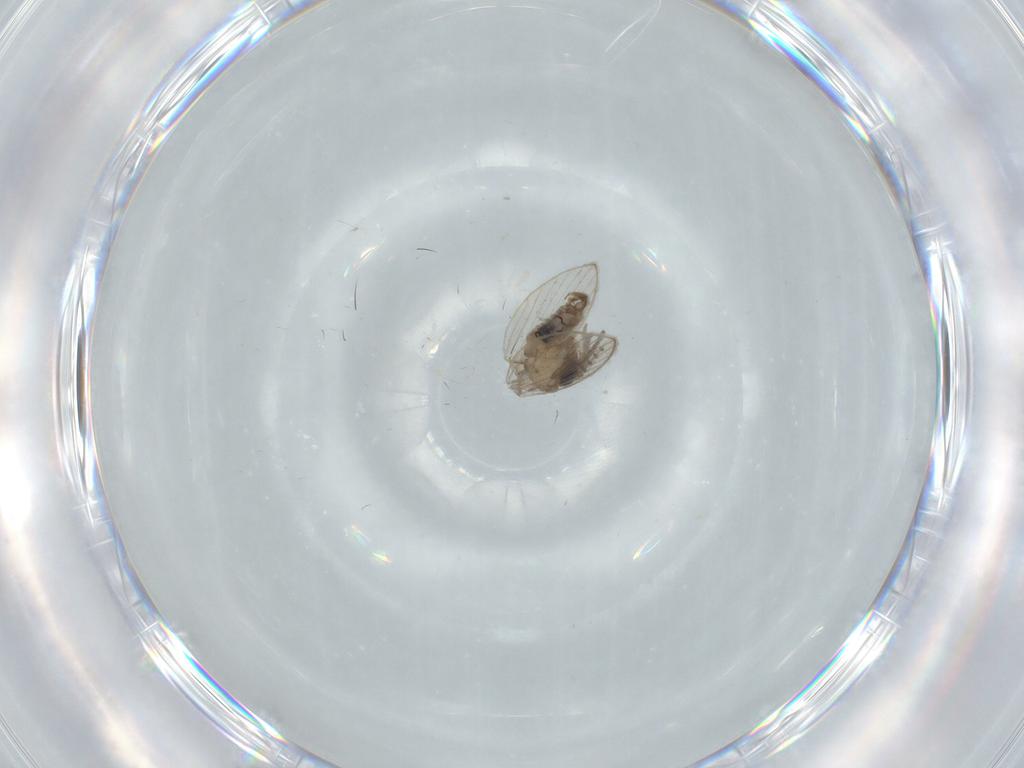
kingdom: Animalia
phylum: Arthropoda
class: Insecta
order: Diptera
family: Psychodidae
